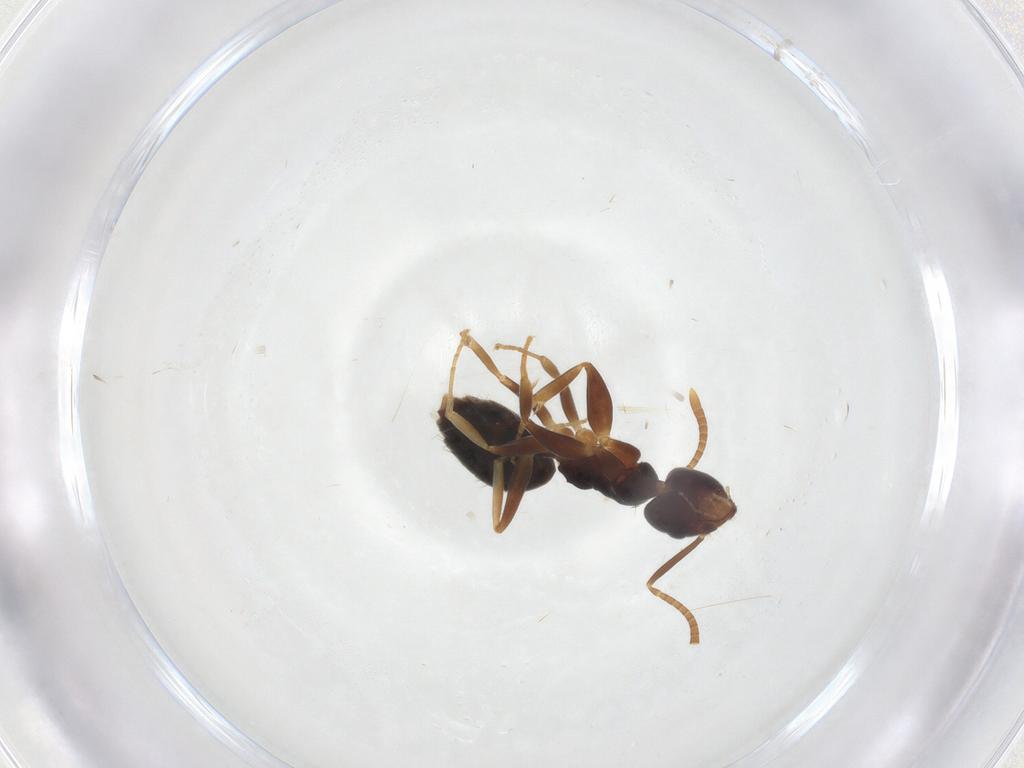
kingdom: Animalia
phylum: Arthropoda
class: Insecta
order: Hymenoptera
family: Formicidae
